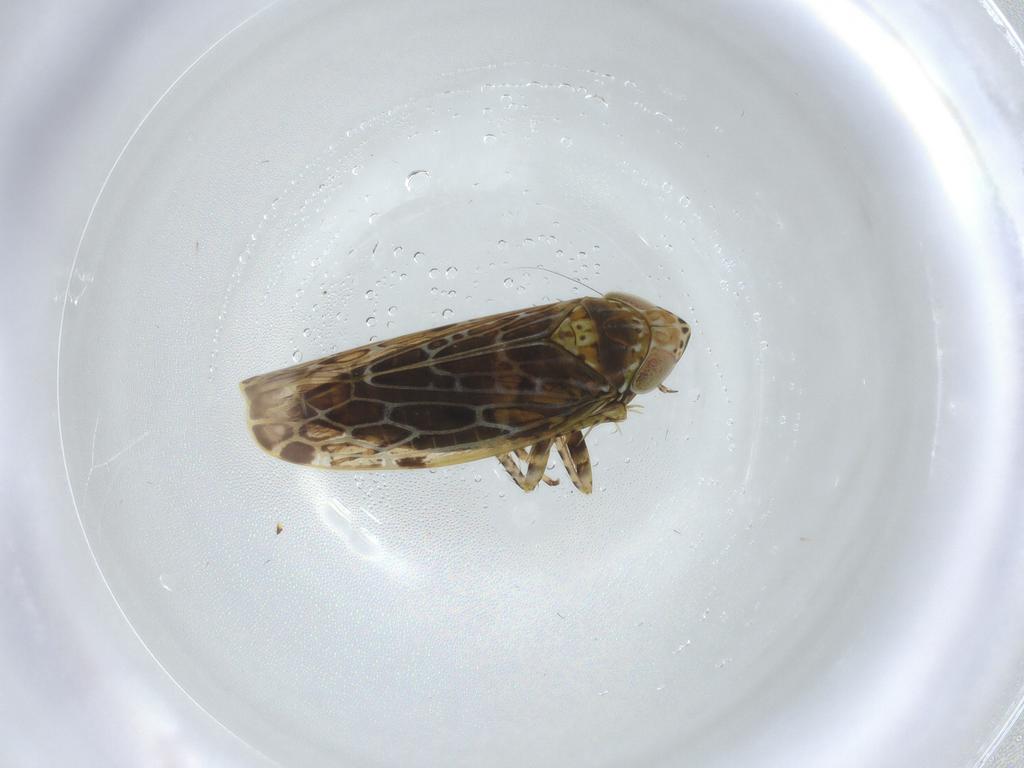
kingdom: Animalia
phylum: Arthropoda
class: Insecta
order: Hemiptera
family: Cicadellidae
